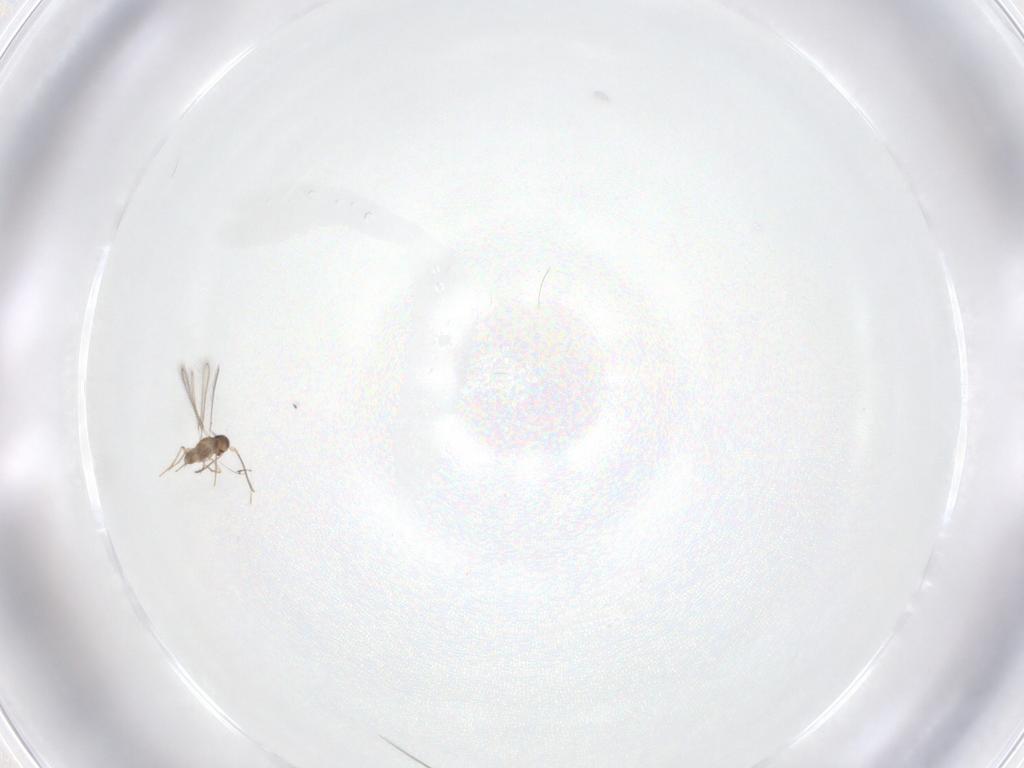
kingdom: Animalia
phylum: Arthropoda
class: Insecta
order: Hymenoptera
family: Mymaridae
